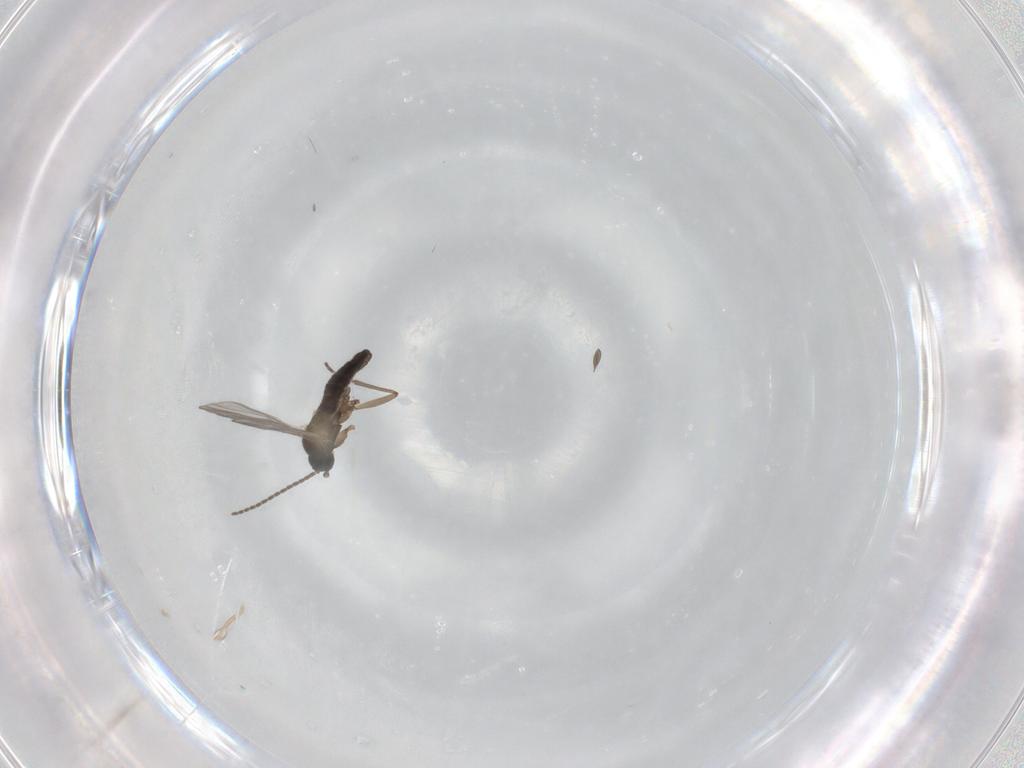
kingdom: Animalia
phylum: Arthropoda
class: Insecta
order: Diptera
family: Sciaridae
